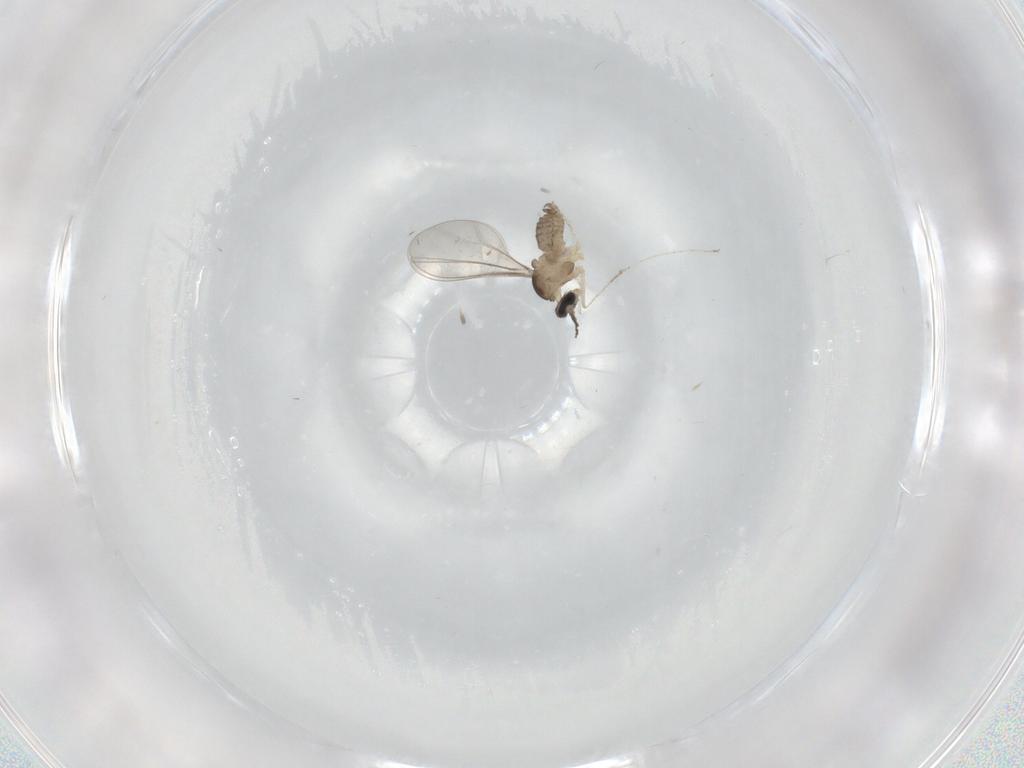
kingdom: Animalia
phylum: Arthropoda
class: Insecta
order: Diptera
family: Cecidomyiidae
